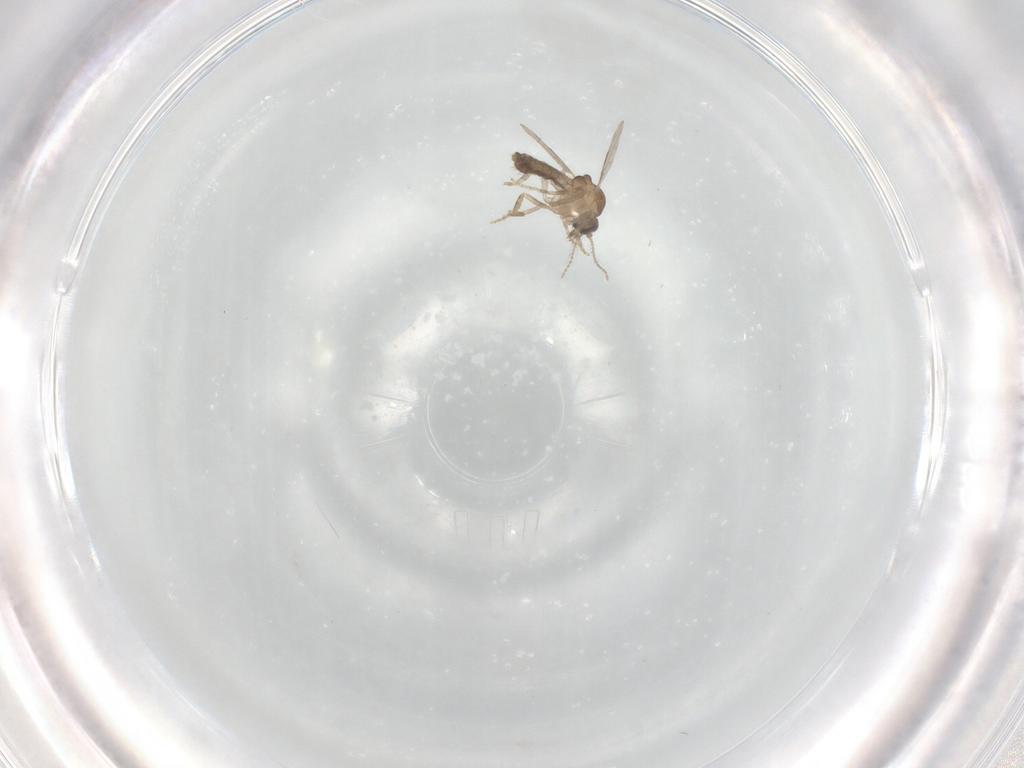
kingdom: Animalia
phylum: Arthropoda
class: Insecta
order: Diptera
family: Ceratopogonidae
